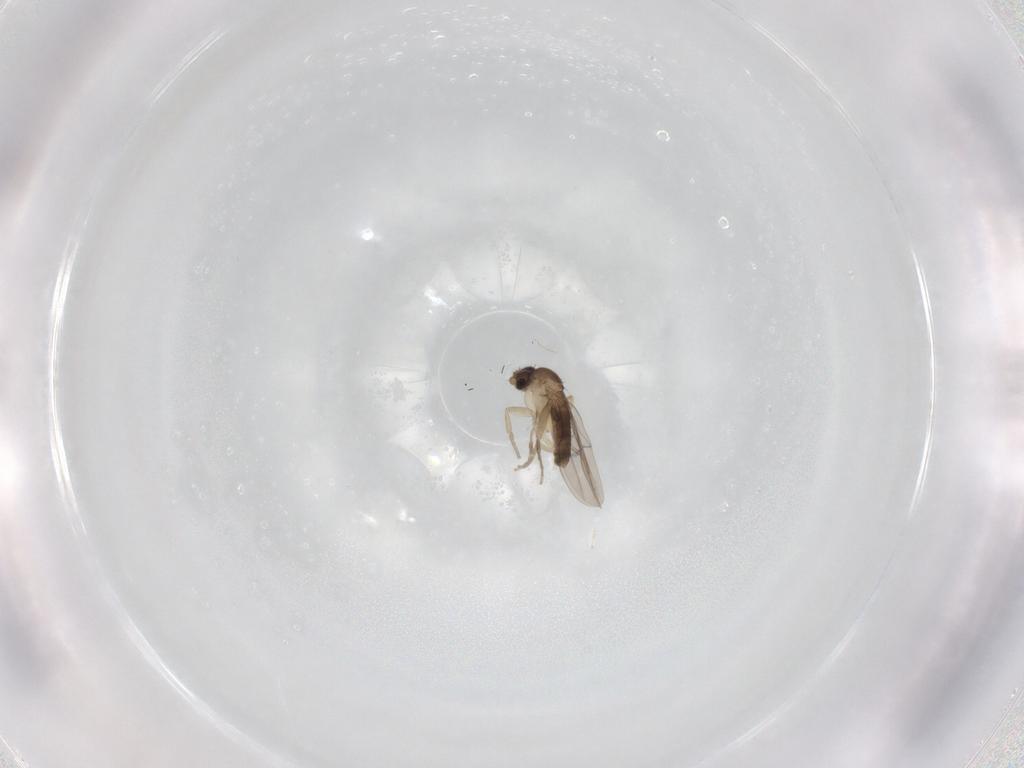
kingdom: Animalia
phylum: Arthropoda
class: Insecta
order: Diptera
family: Phoridae
